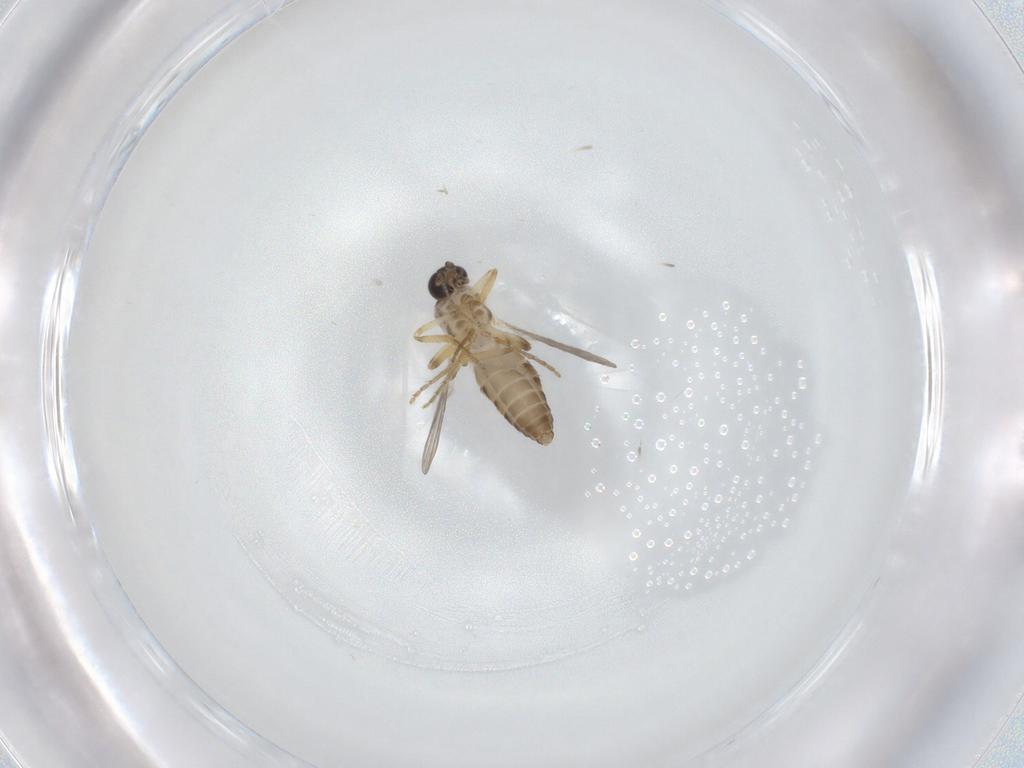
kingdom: Animalia
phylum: Arthropoda
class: Insecta
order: Diptera
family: Ceratopogonidae
